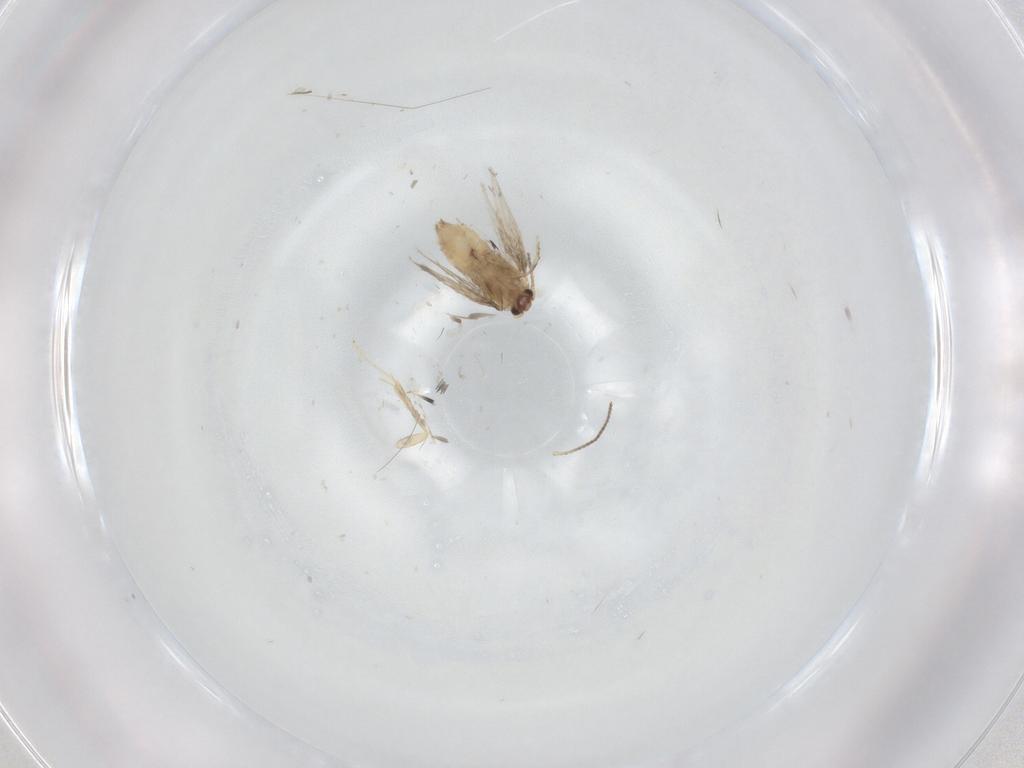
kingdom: Animalia
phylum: Arthropoda
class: Insecta
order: Lepidoptera
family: Nepticulidae
